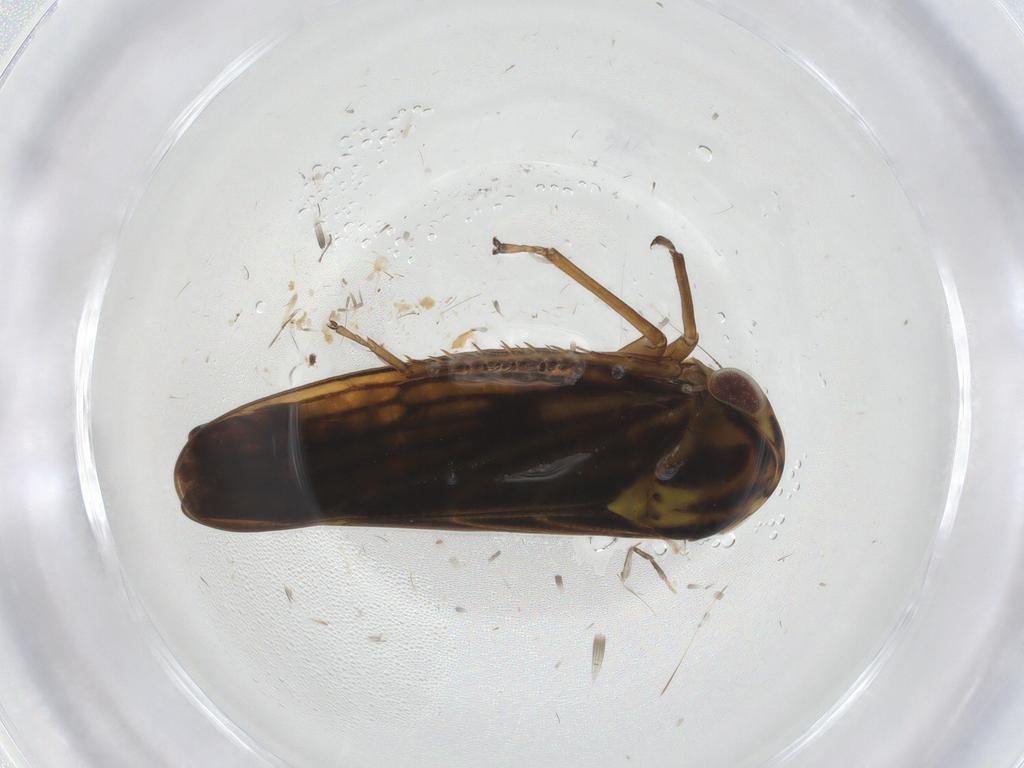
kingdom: Animalia
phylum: Arthropoda
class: Insecta
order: Hemiptera
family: Cicadellidae
